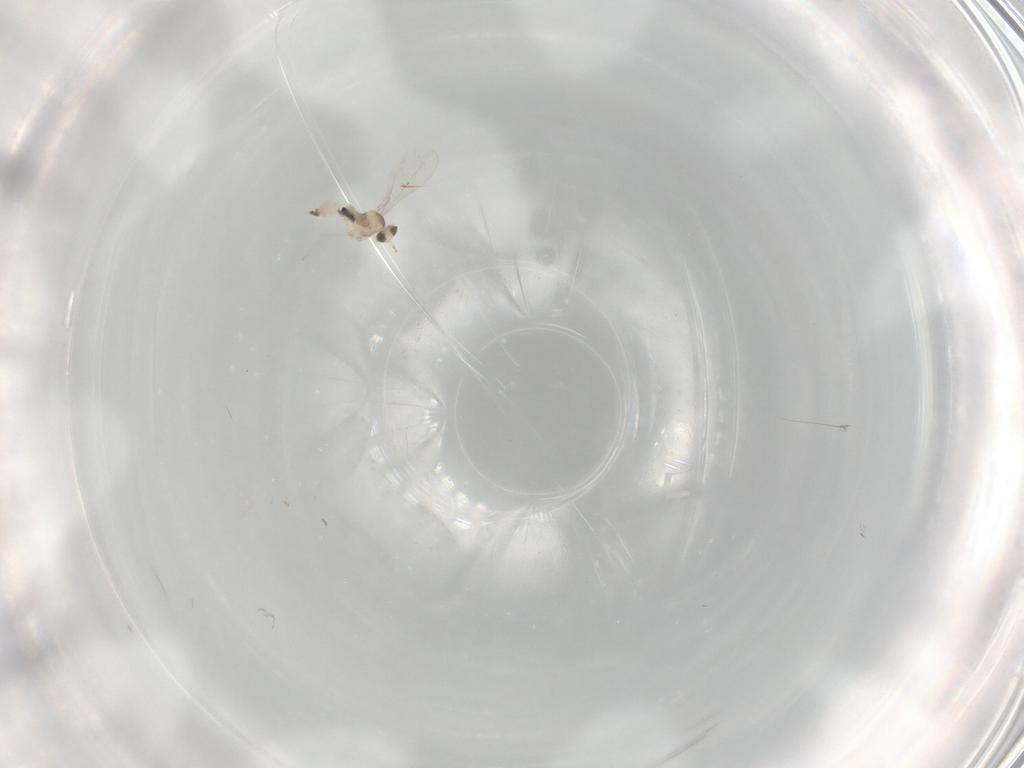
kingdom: Animalia
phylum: Arthropoda
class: Insecta
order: Diptera
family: Cecidomyiidae
